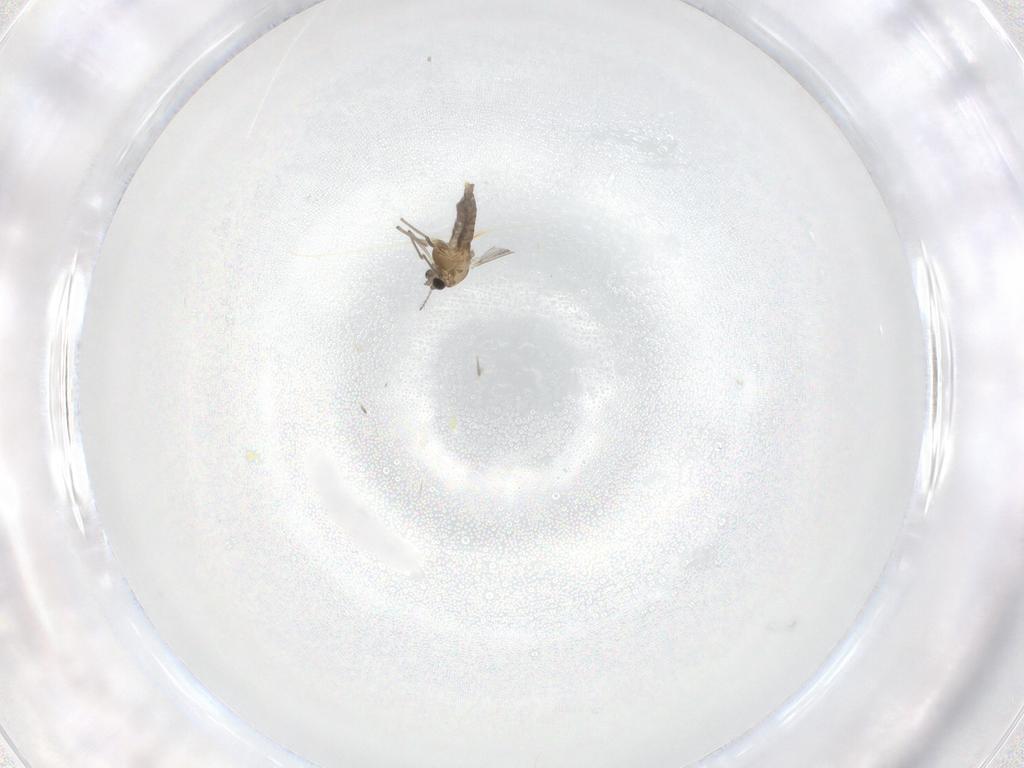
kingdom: Animalia
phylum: Arthropoda
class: Insecta
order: Diptera
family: Chironomidae
